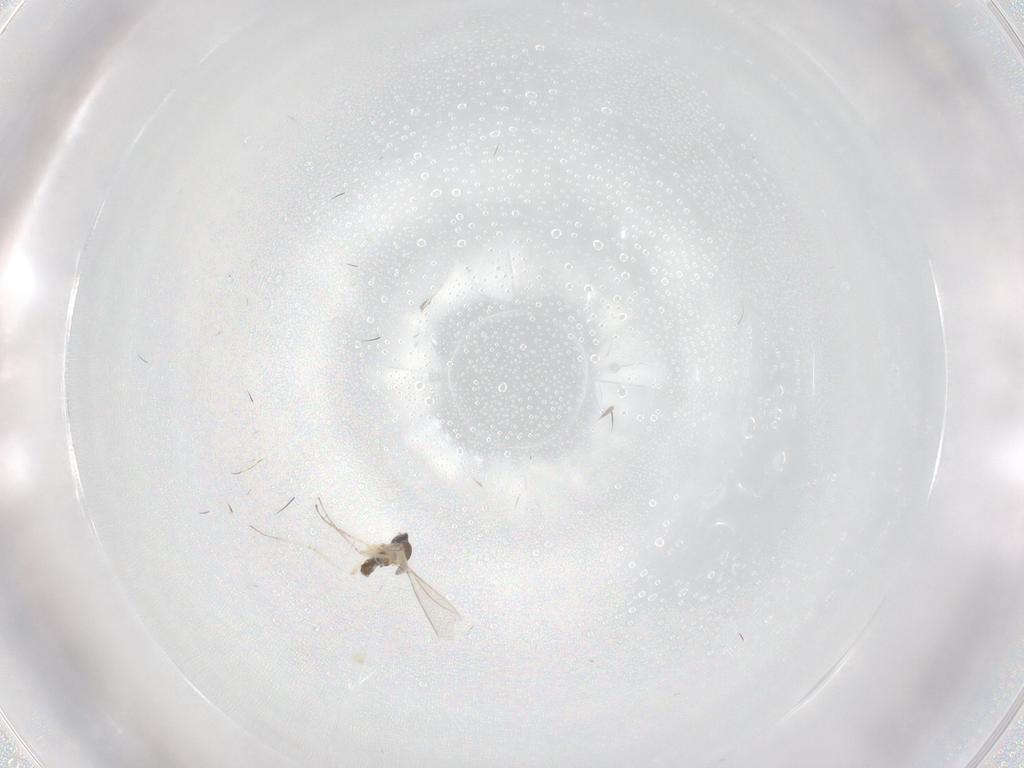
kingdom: Animalia
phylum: Arthropoda
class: Insecta
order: Diptera
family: Cecidomyiidae
